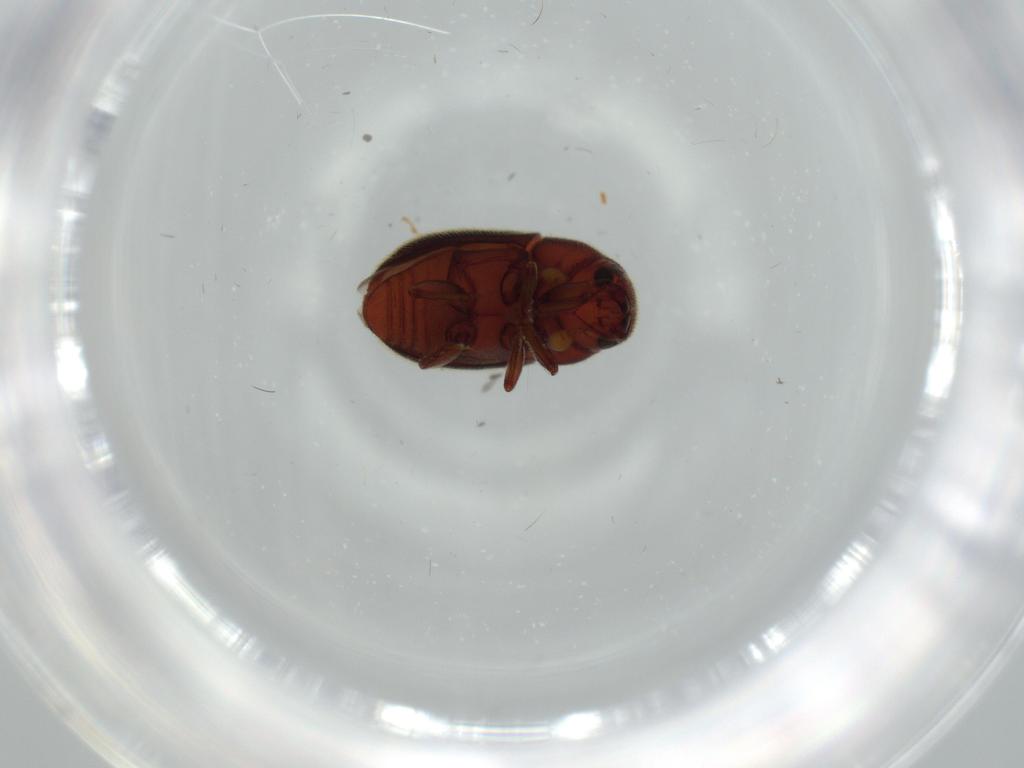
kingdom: Animalia
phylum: Arthropoda
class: Insecta
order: Coleoptera
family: Curculionidae
